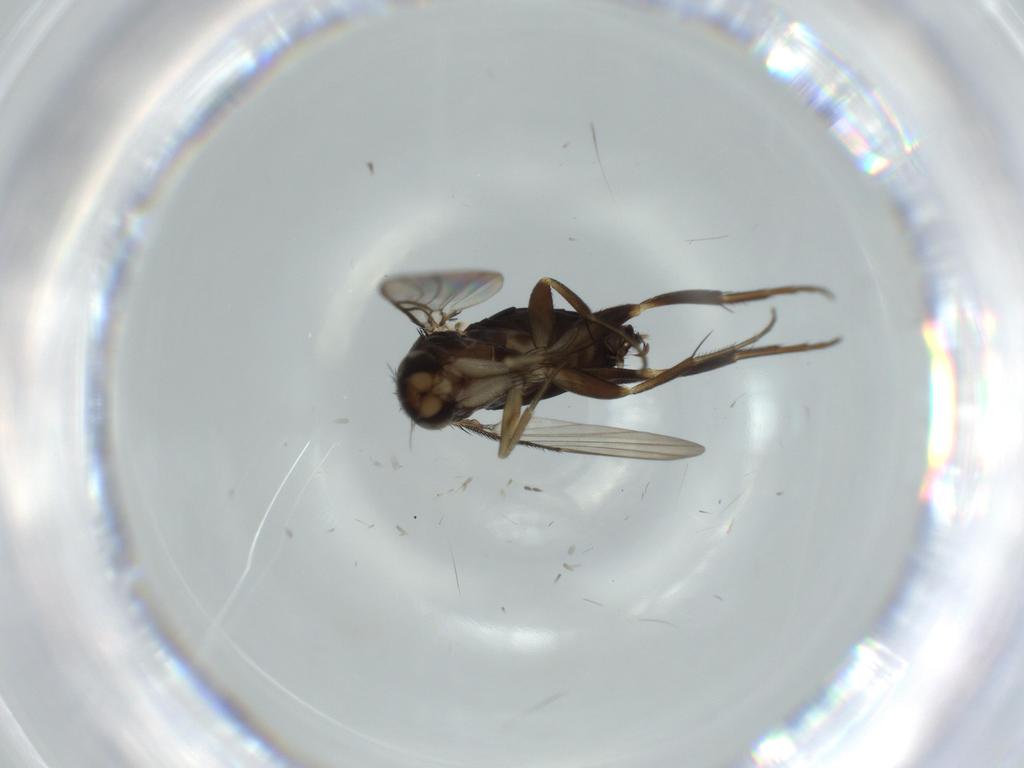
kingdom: Animalia
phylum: Arthropoda
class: Insecta
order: Diptera
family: Phoridae
